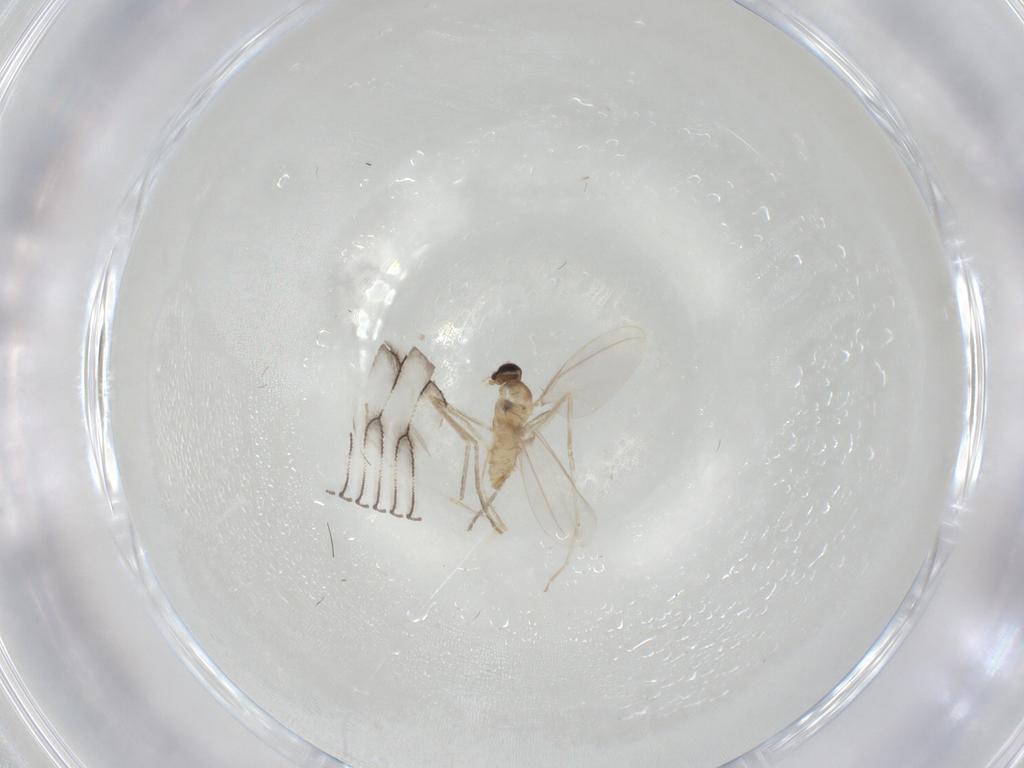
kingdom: Animalia
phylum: Arthropoda
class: Insecta
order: Diptera
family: Cecidomyiidae
